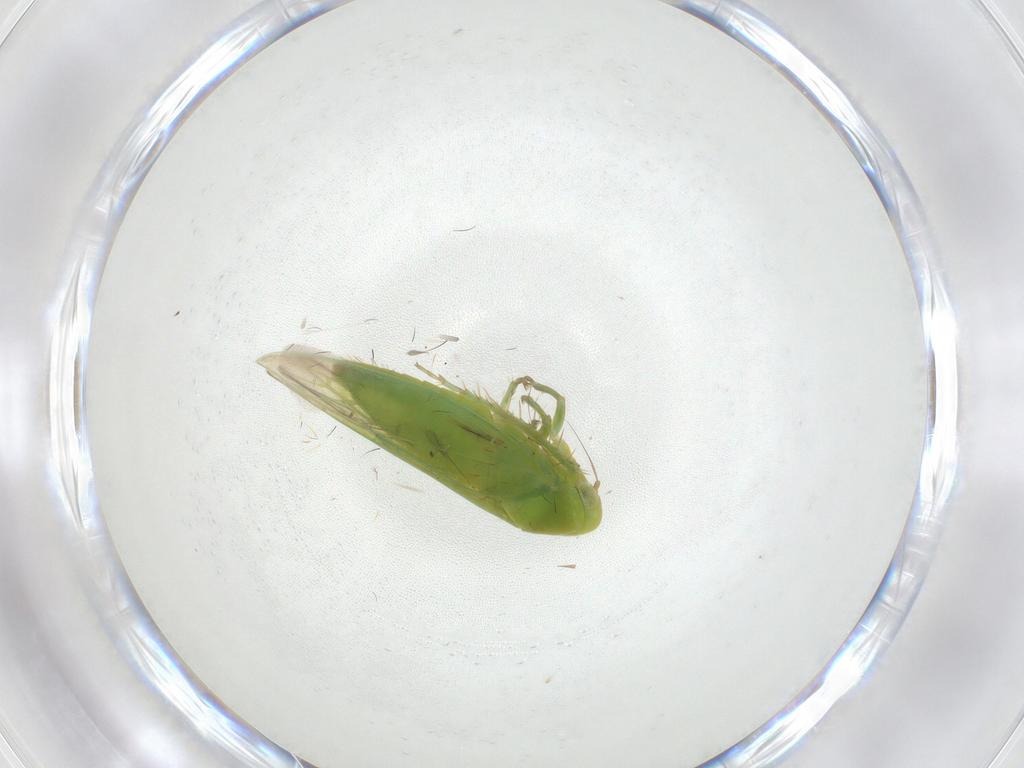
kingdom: Animalia
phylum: Arthropoda
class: Insecta
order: Hemiptera
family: Cicadellidae
